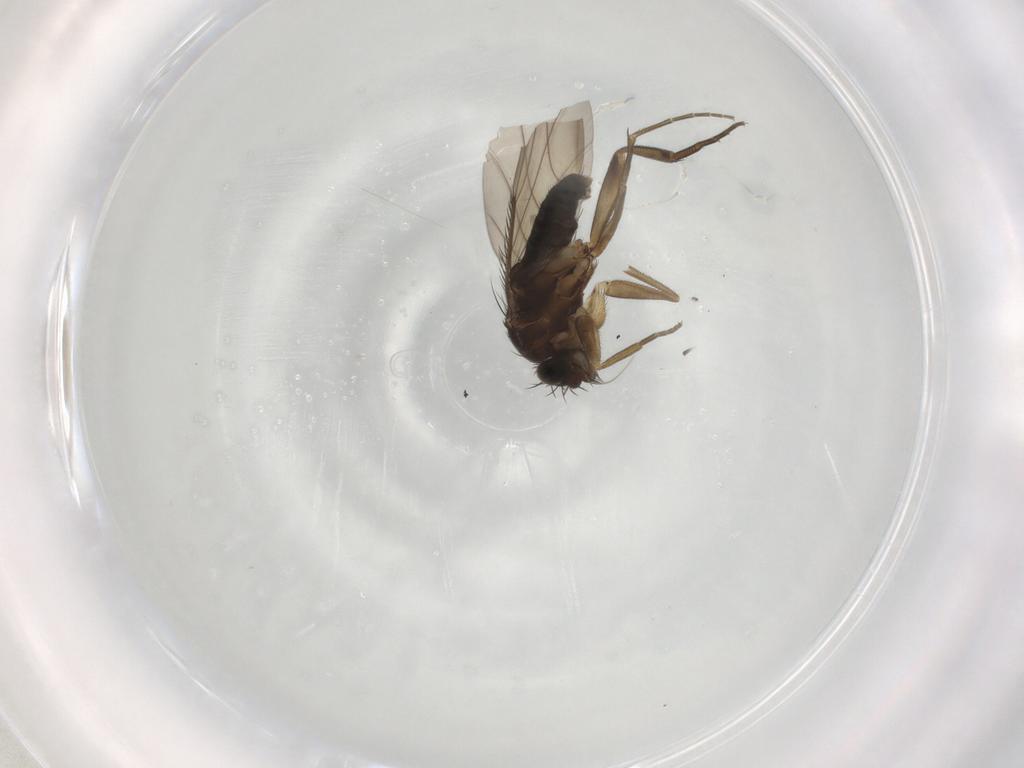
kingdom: Animalia
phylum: Arthropoda
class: Insecta
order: Diptera
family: Phoridae
